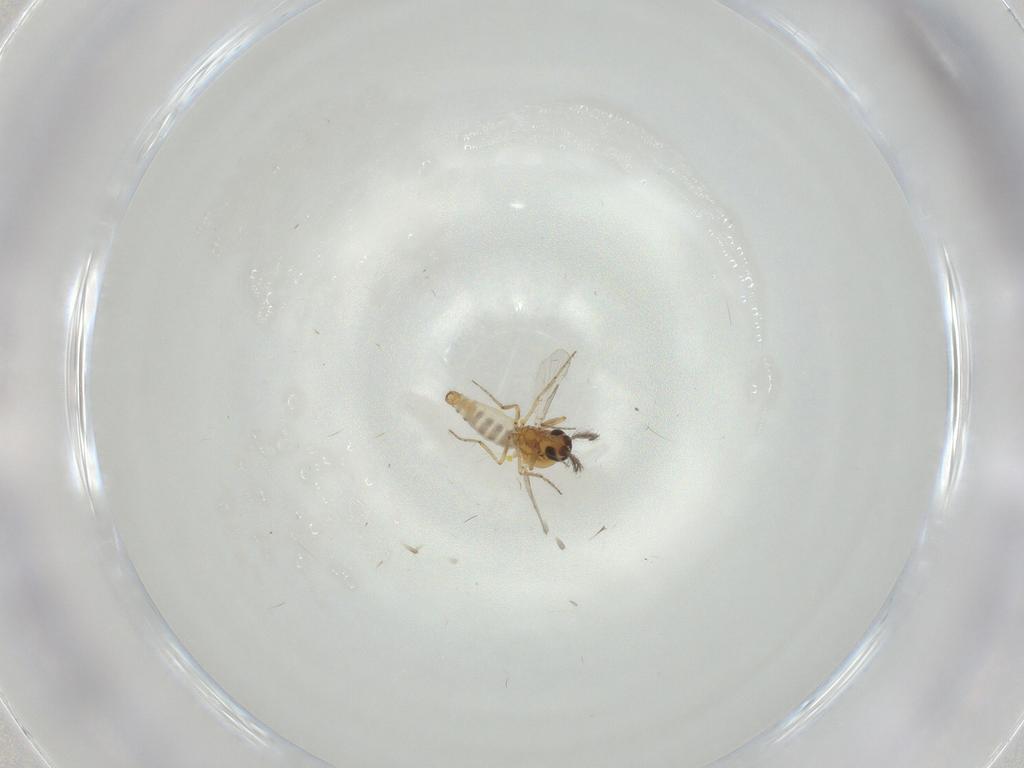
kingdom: Animalia
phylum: Arthropoda
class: Insecta
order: Diptera
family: Ceratopogonidae
